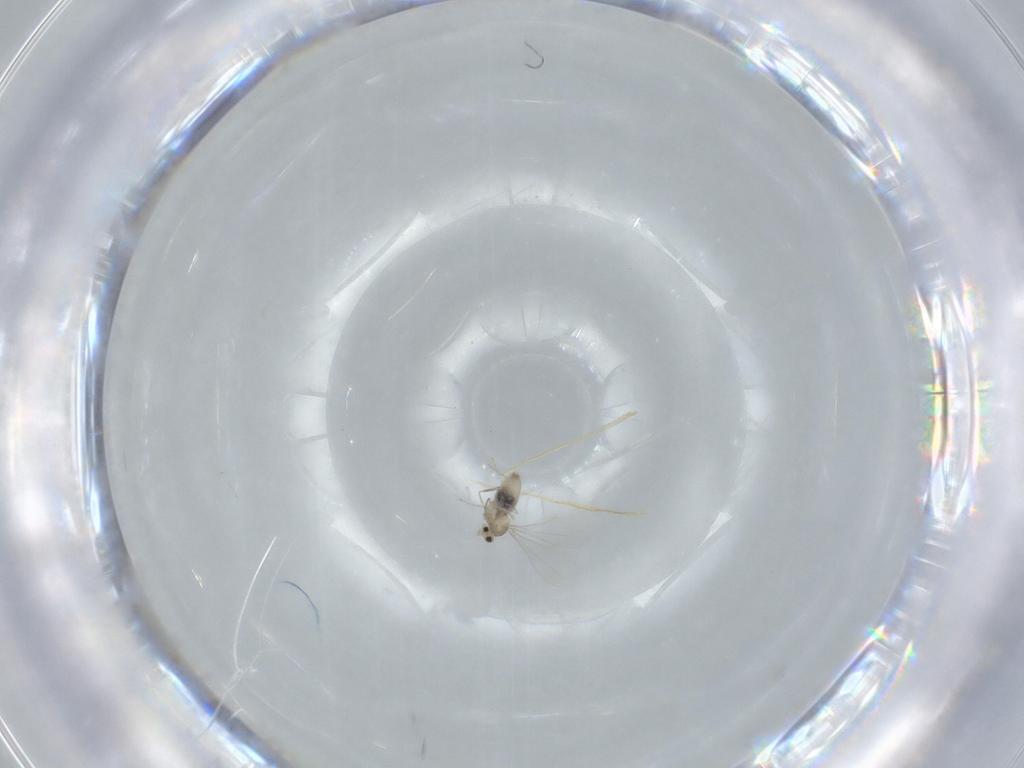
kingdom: Animalia
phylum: Arthropoda
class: Insecta
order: Diptera
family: Cecidomyiidae
